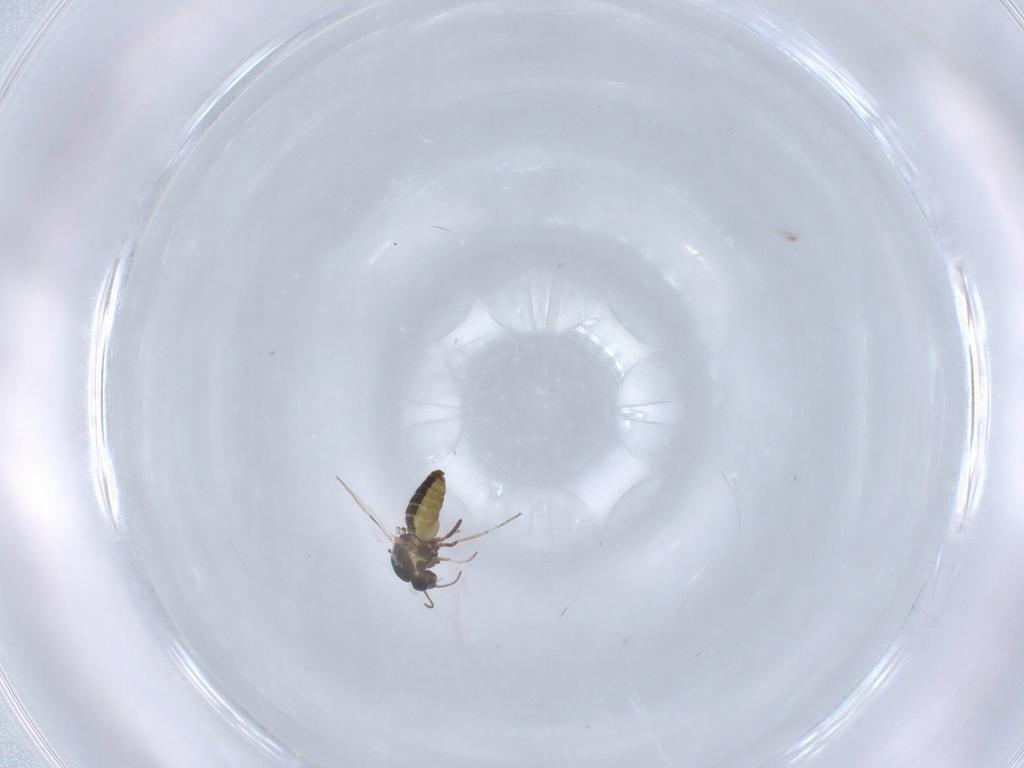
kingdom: Animalia
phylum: Arthropoda
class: Insecta
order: Diptera
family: Ceratopogonidae
